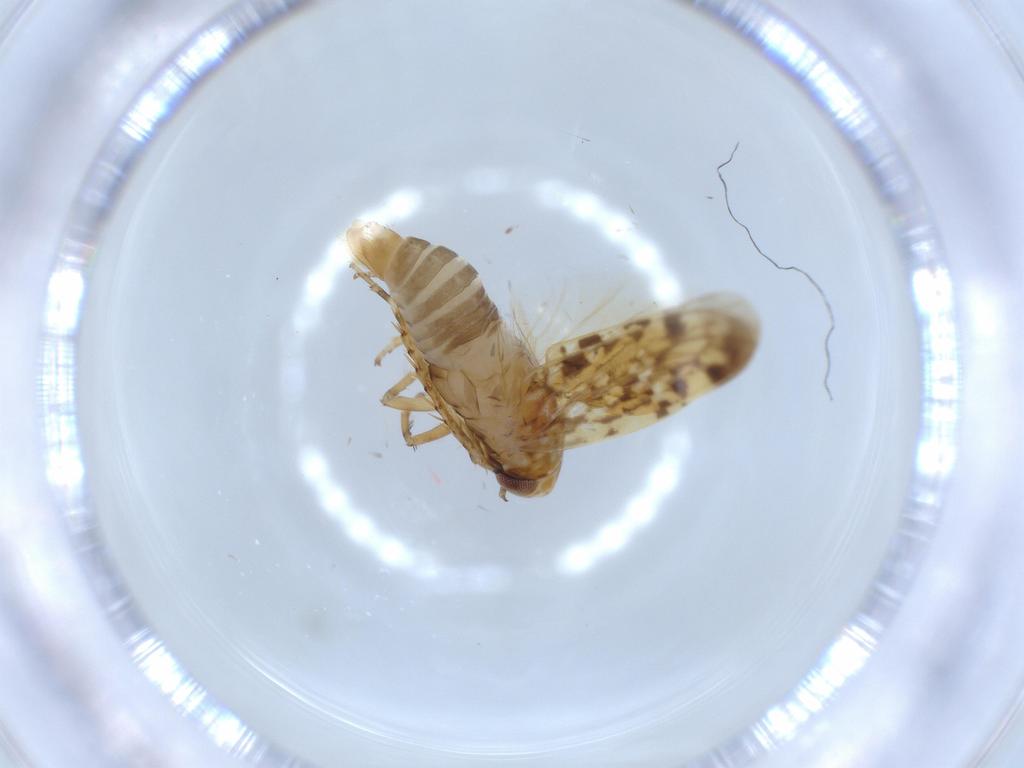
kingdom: Animalia
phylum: Arthropoda
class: Insecta
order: Hemiptera
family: Cicadellidae
